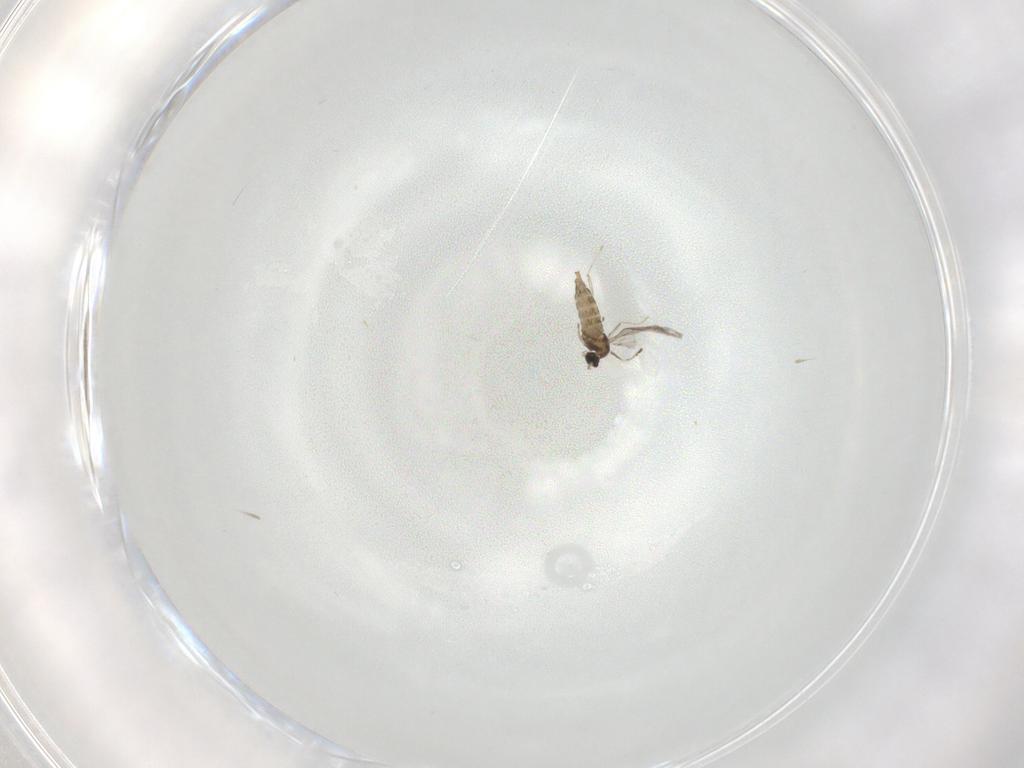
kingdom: Animalia
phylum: Arthropoda
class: Insecta
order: Diptera
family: Cecidomyiidae
